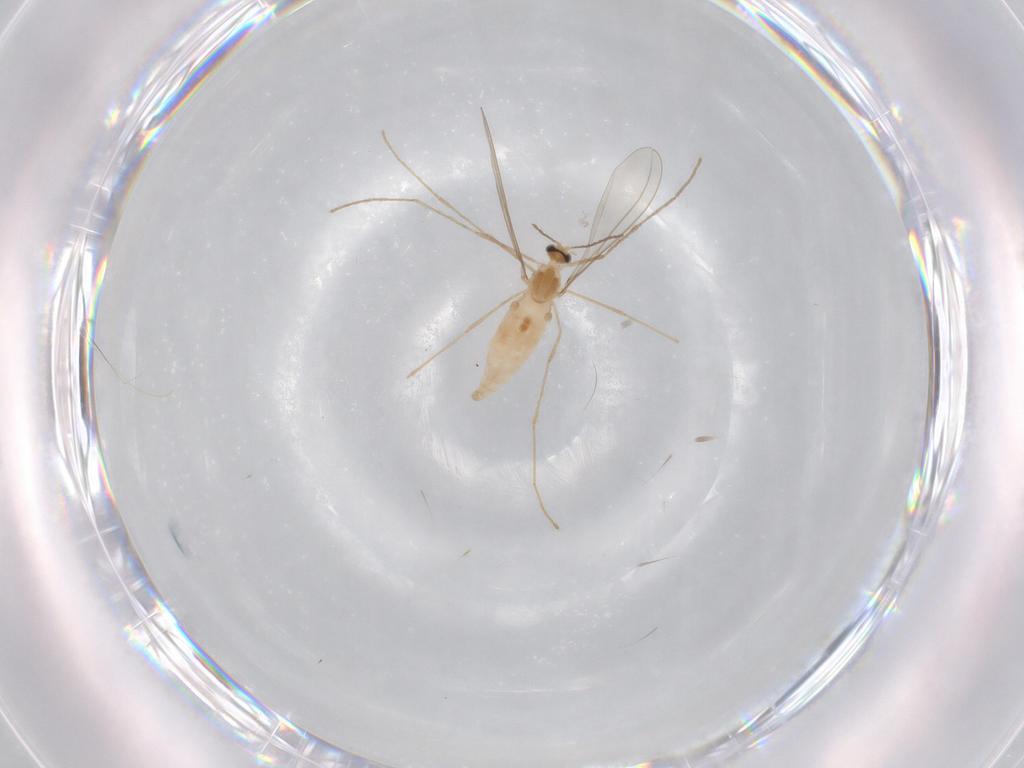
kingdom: Animalia
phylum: Arthropoda
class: Insecta
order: Diptera
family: Cecidomyiidae
